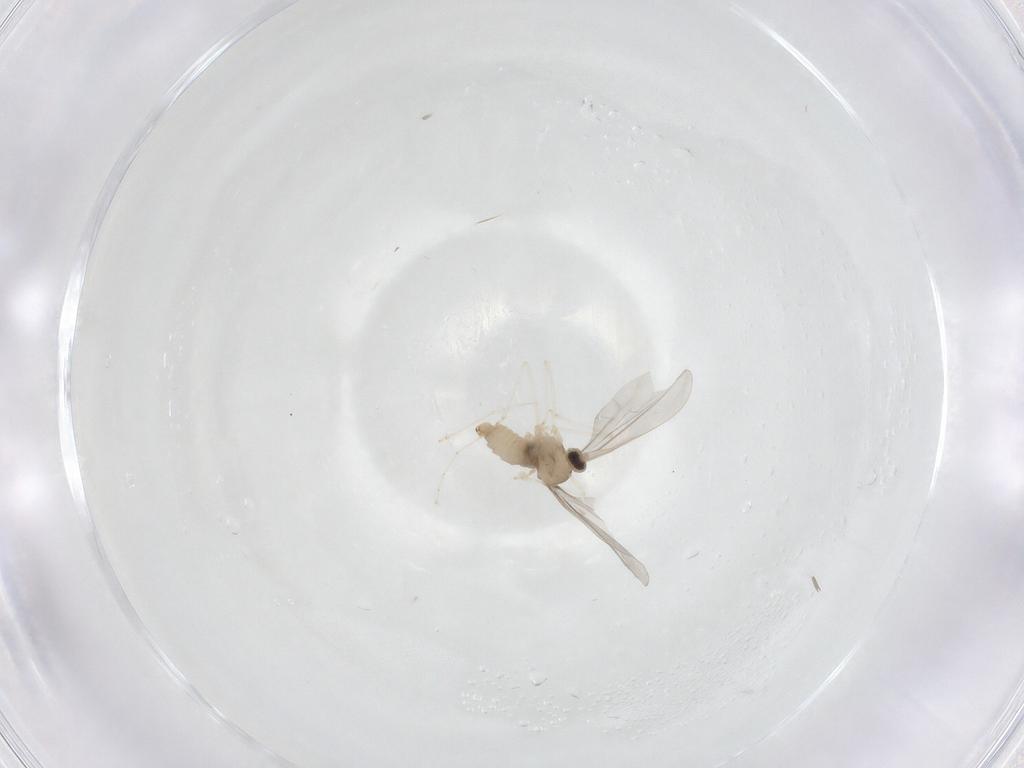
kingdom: Animalia
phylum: Arthropoda
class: Insecta
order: Diptera
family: Cecidomyiidae
